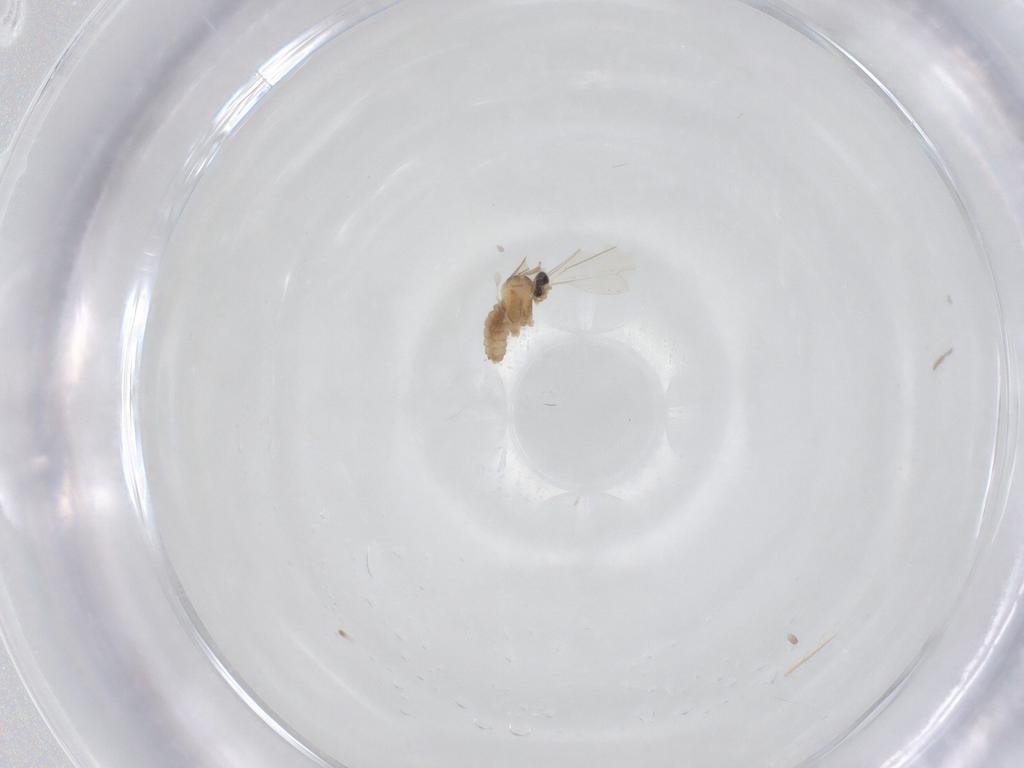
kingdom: Animalia
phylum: Arthropoda
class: Insecta
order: Diptera
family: Cecidomyiidae
